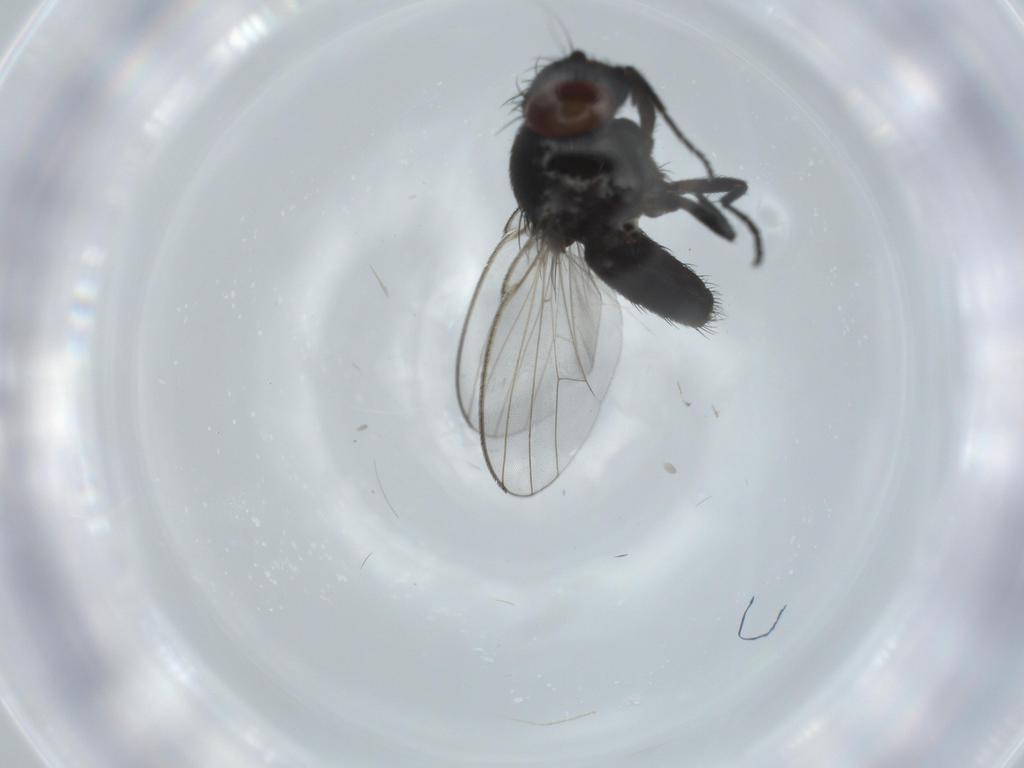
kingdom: Animalia
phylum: Arthropoda
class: Insecta
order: Diptera
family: Milichiidae
